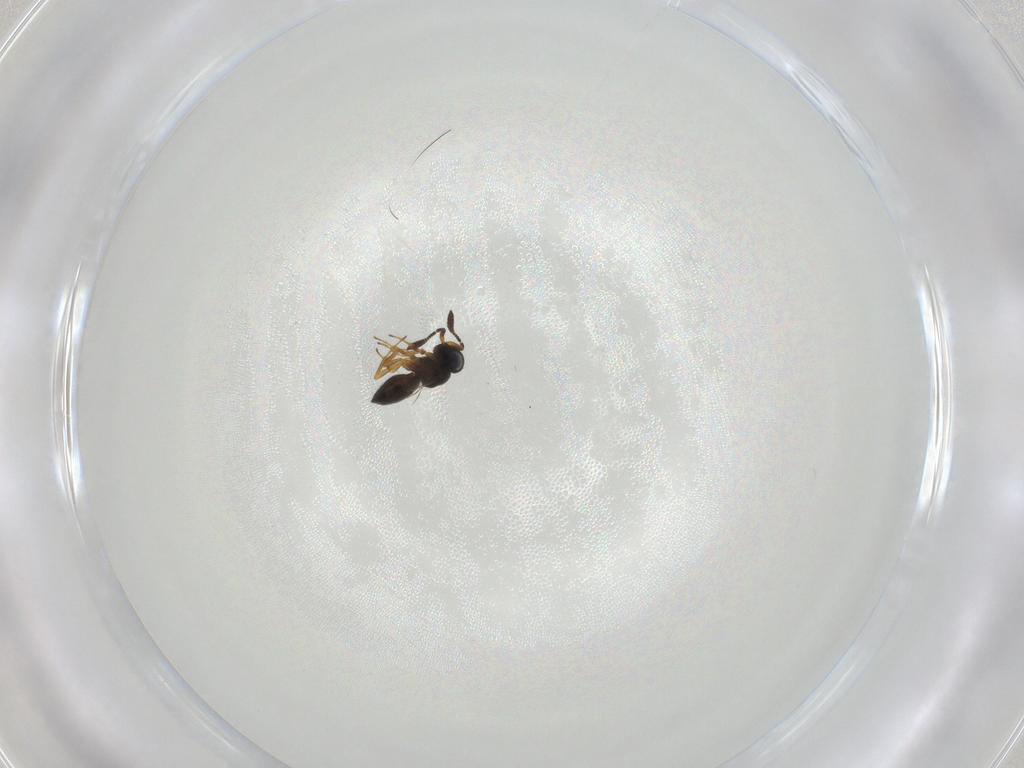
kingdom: Animalia
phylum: Arthropoda
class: Insecta
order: Hymenoptera
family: Scelionidae
